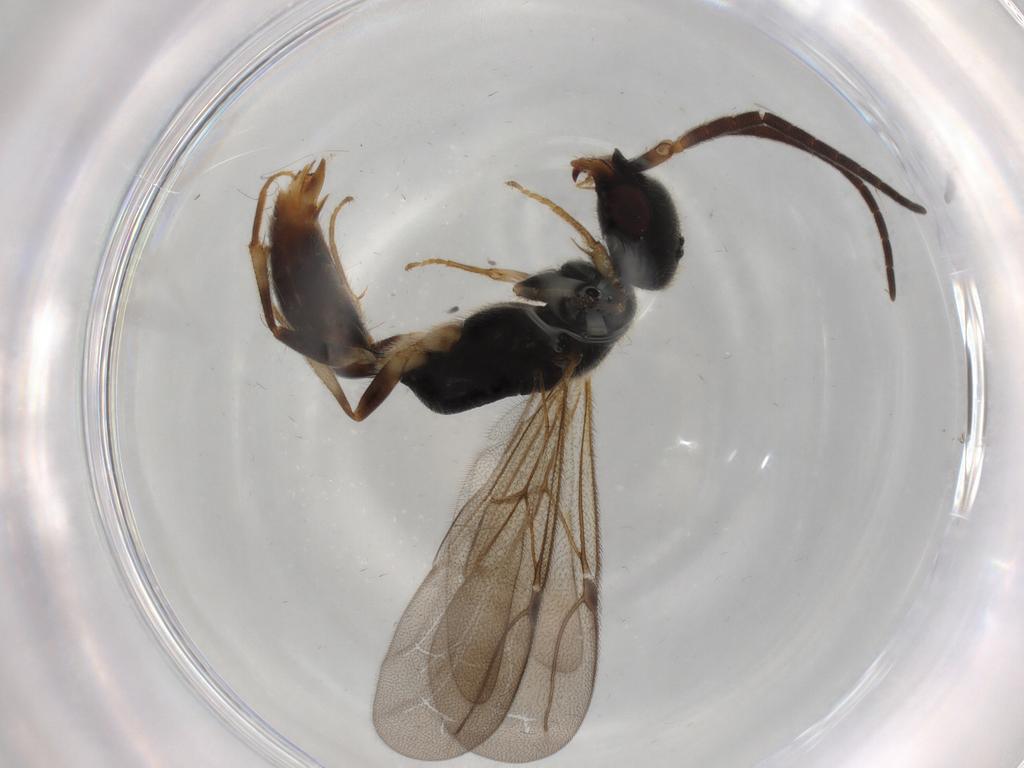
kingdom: Animalia
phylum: Arthropoda
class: Insecta
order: Hymenoptera
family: Bethylidae
